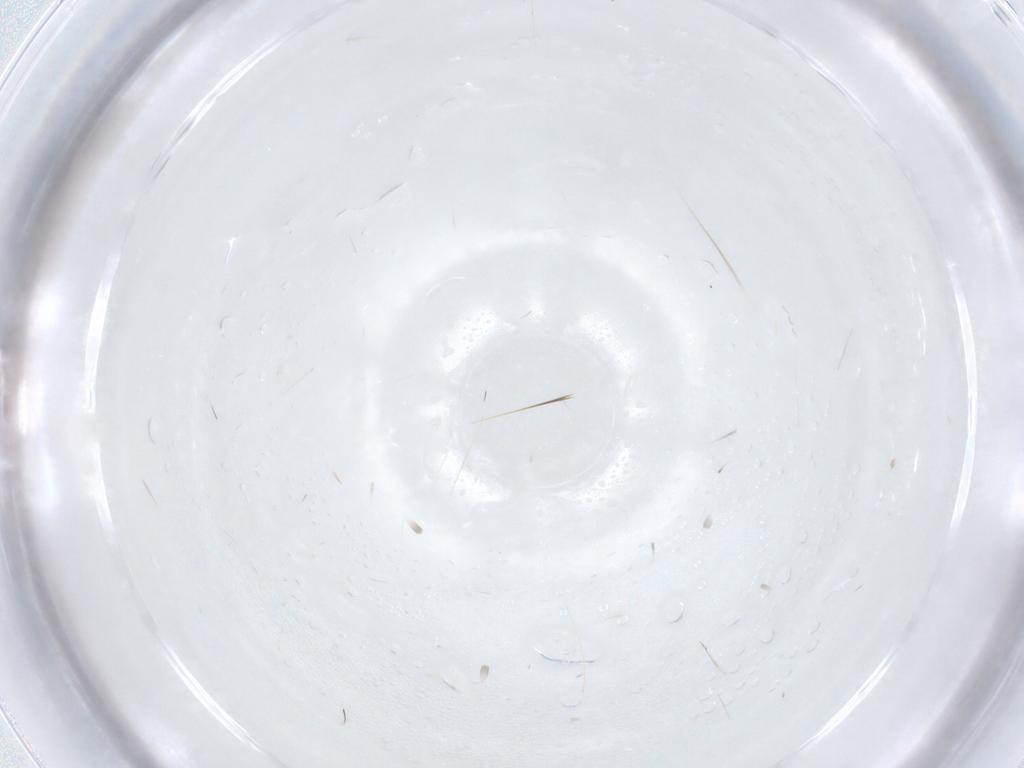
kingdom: Animalia
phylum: Arthropoda
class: Arachnida
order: Trombidiformes
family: Erythraeidae
